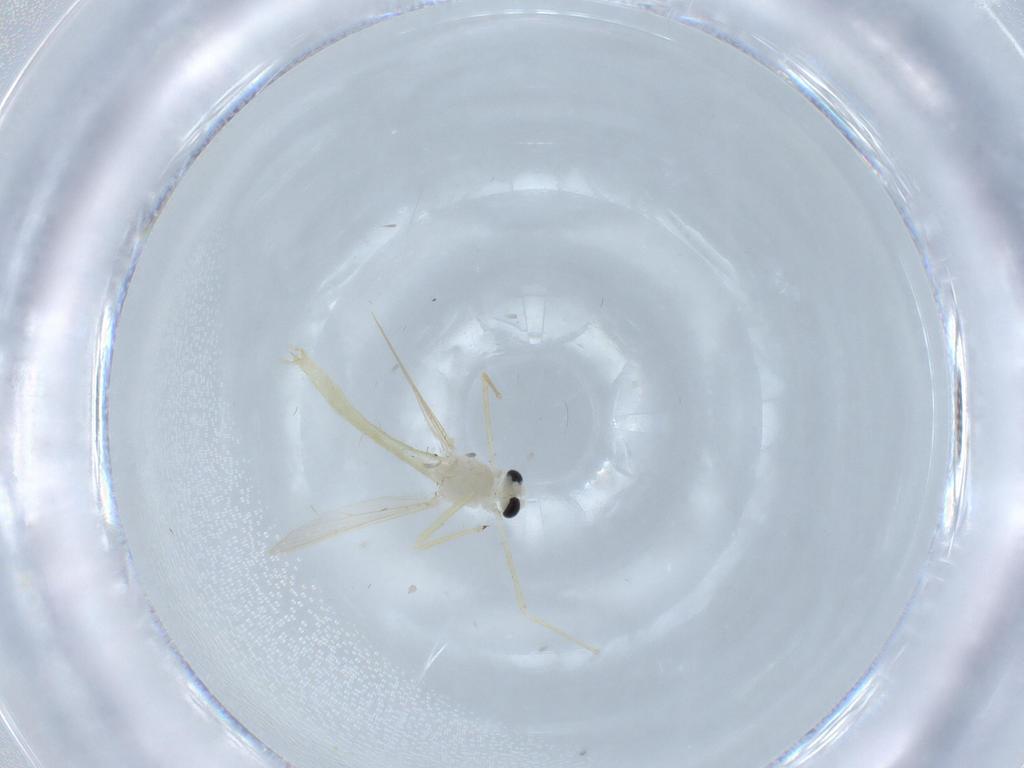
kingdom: Animalia
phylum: Arthropoda
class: Insecta
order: Diptera
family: Chironomidae
